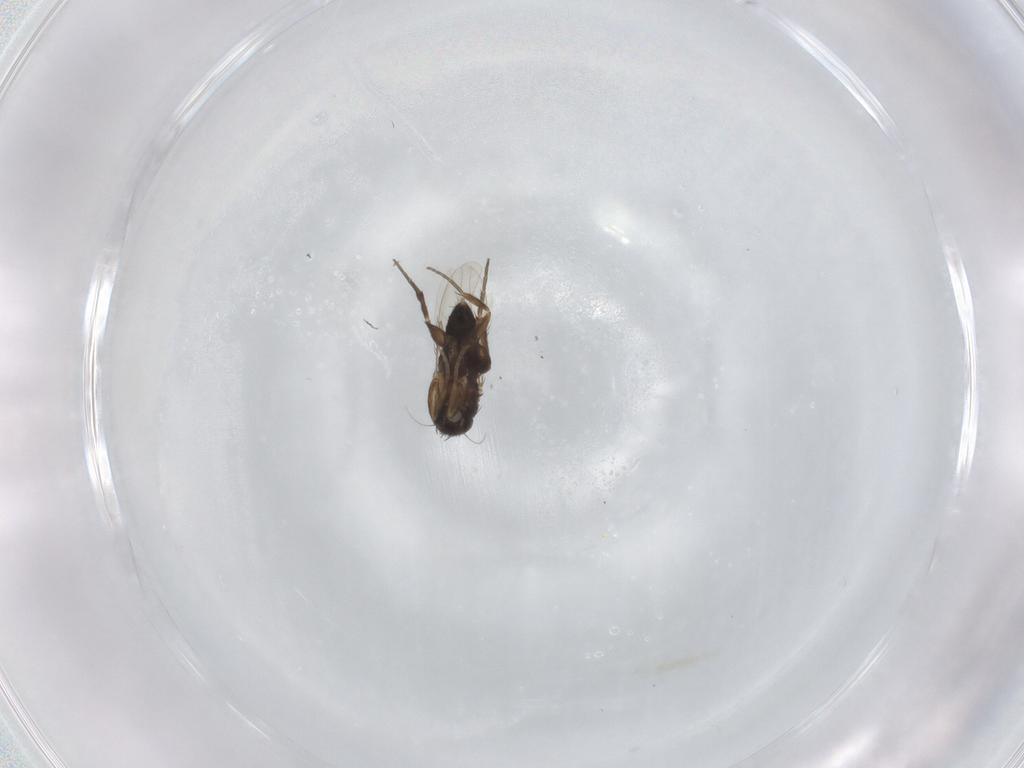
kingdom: Animalia
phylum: Arthropoda
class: Insecta
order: Diptera
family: Phoridae
